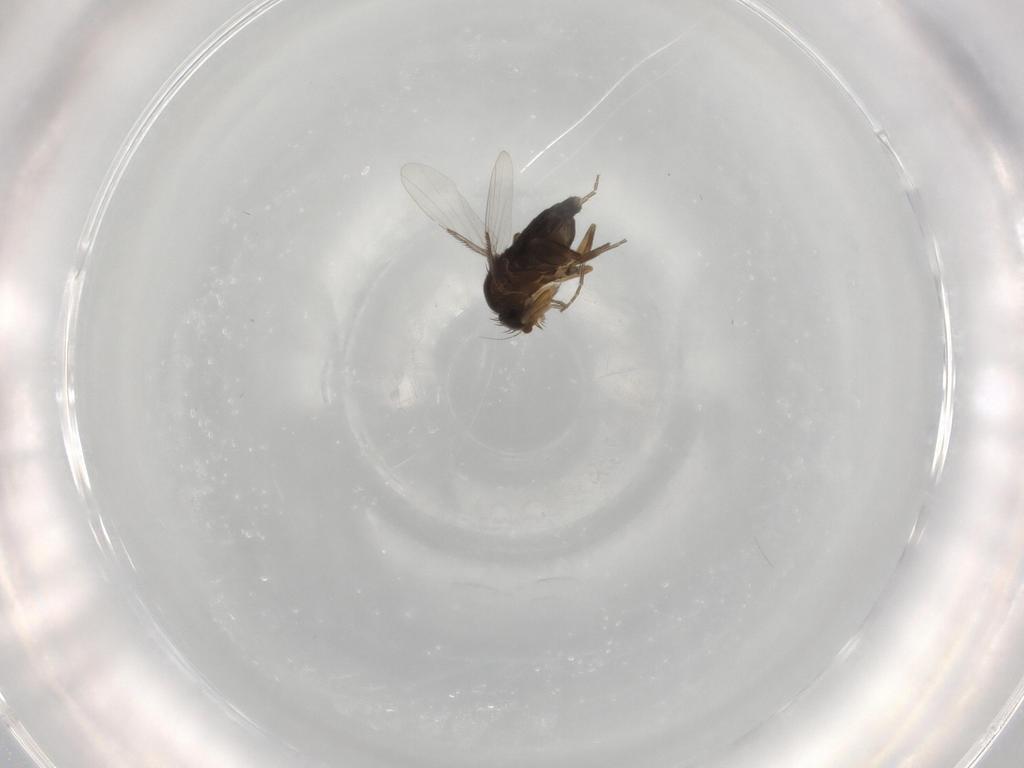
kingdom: Animalia
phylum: Arthropoda
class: Insecta
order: Diptera
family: Phoridae
